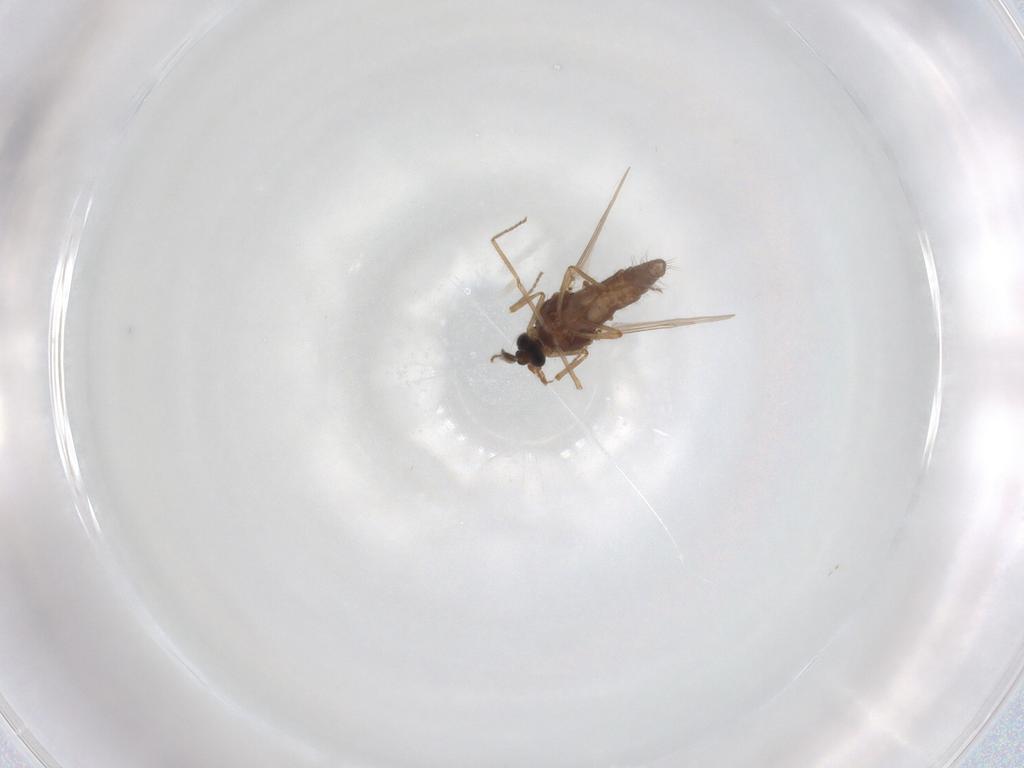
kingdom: Animalia
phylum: Arthropoda
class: Insecta
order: Diptera
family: Ceratopogonidae
